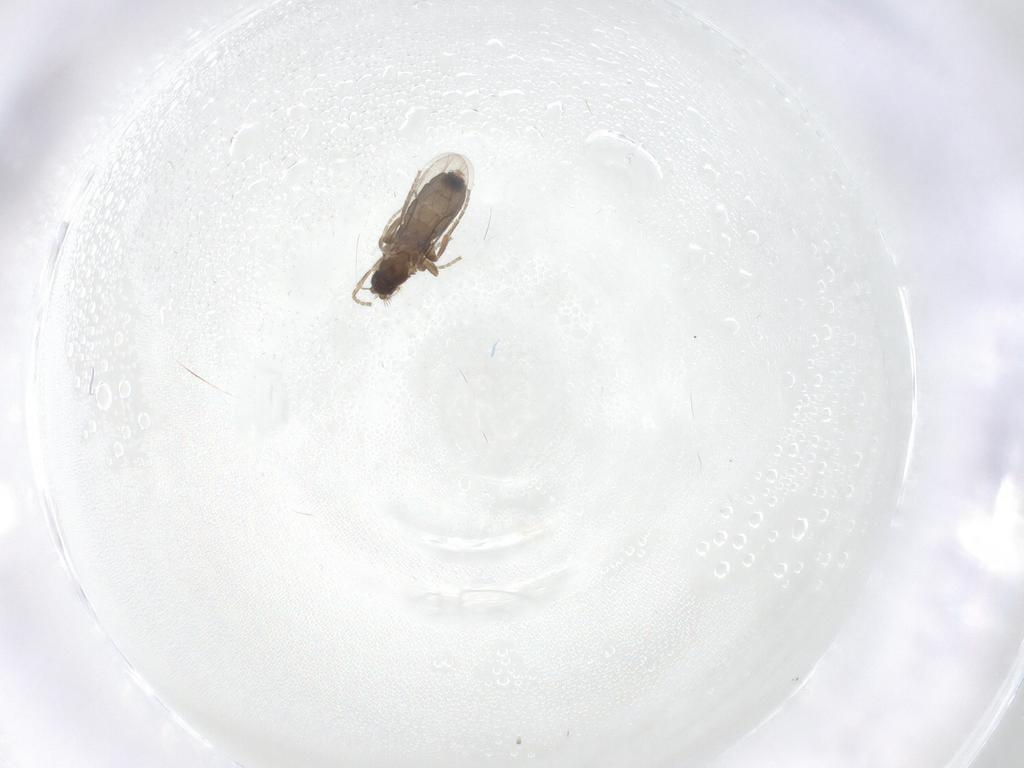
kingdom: Animalia
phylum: Arthropoda
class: Insecta
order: Diptera
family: Phoridae
